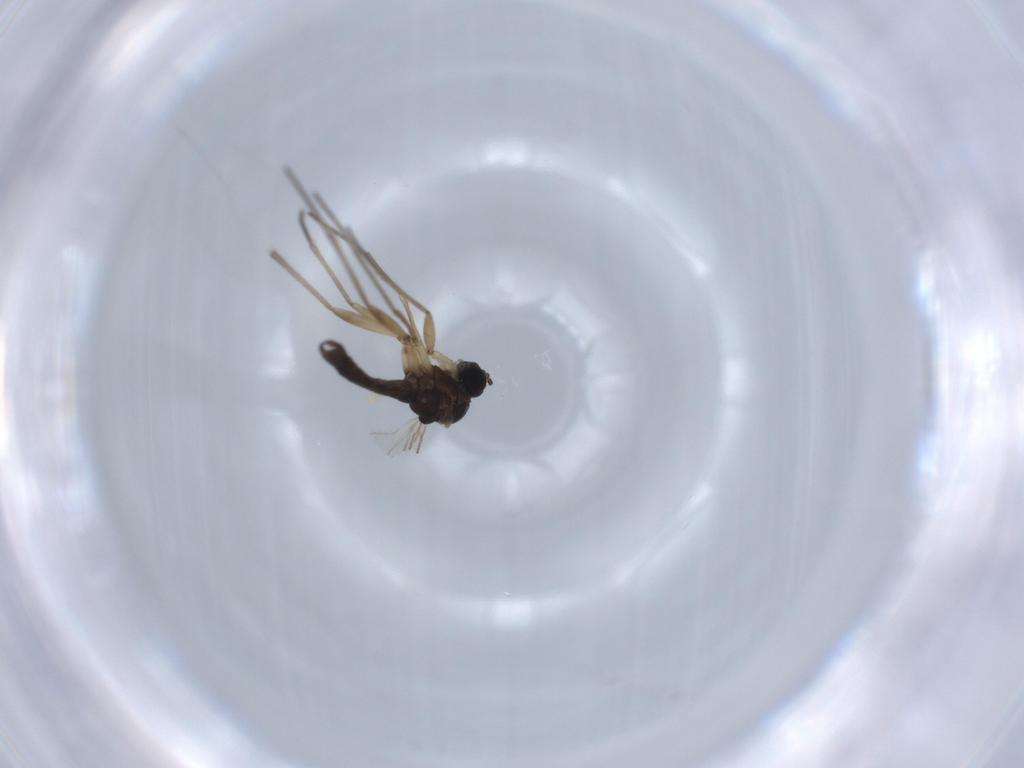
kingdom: Animalia
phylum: Arthropoda
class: Insecta
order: Diptera
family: Sciaridae
